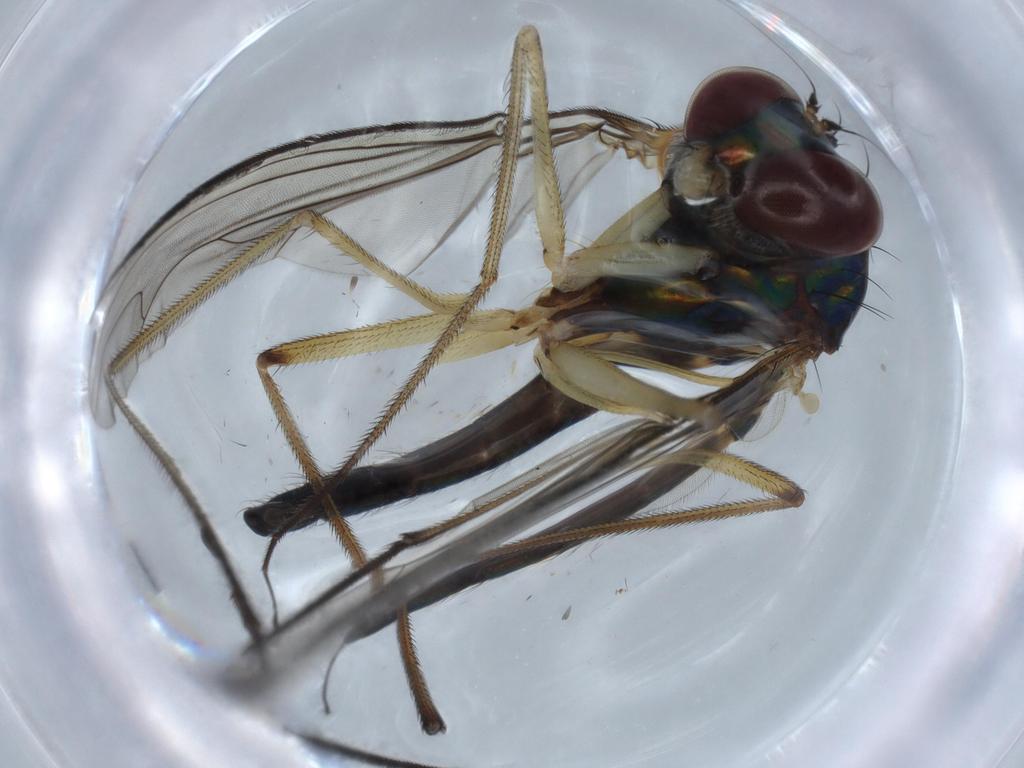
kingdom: Animalia
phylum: Arthropoda
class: Insecta
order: Diptera
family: Dolichopodidae
